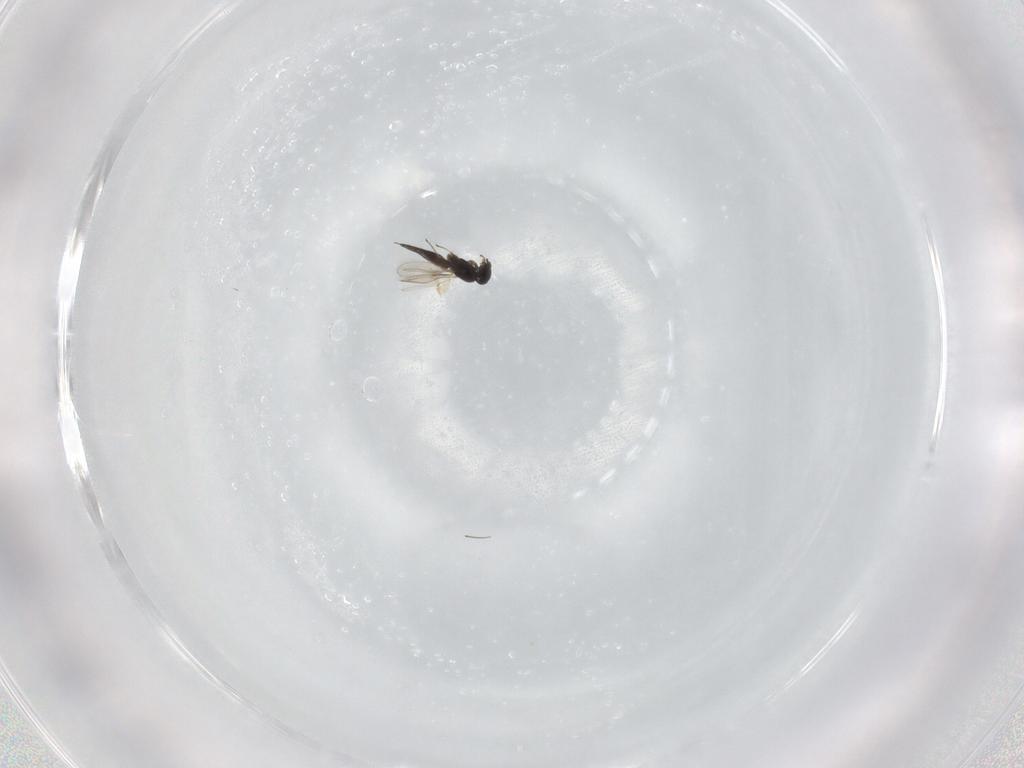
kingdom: Animalia
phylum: Arthropoda
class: Insecta
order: Hymenoptera
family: Scelionidae
